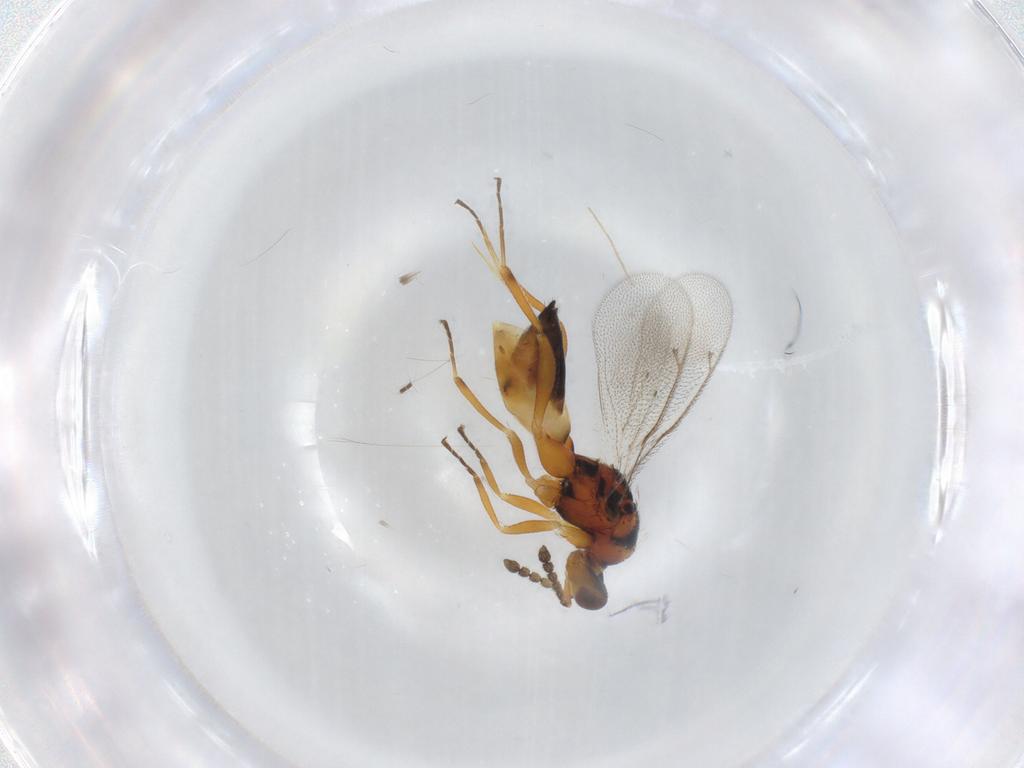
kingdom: Animalia
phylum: Arthropoda
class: Insecta
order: Hymenoptera
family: Eulophidae
